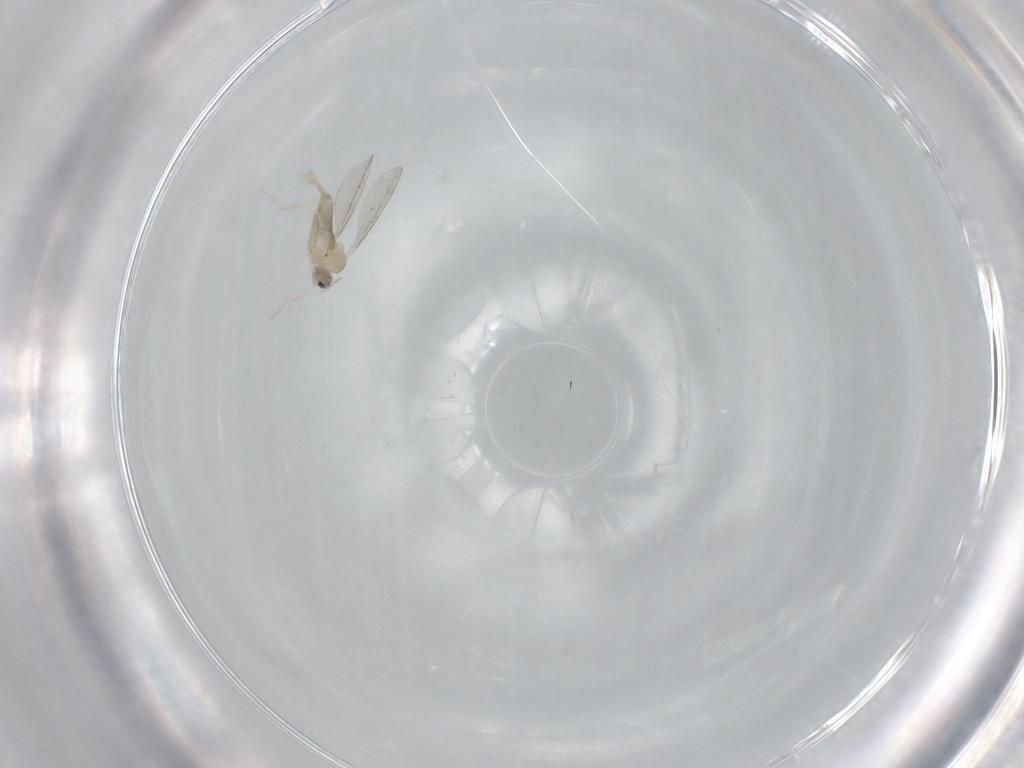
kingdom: Animalia
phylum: Arthropoda
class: Insecta
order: Diptera
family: Cecidomyiidae
